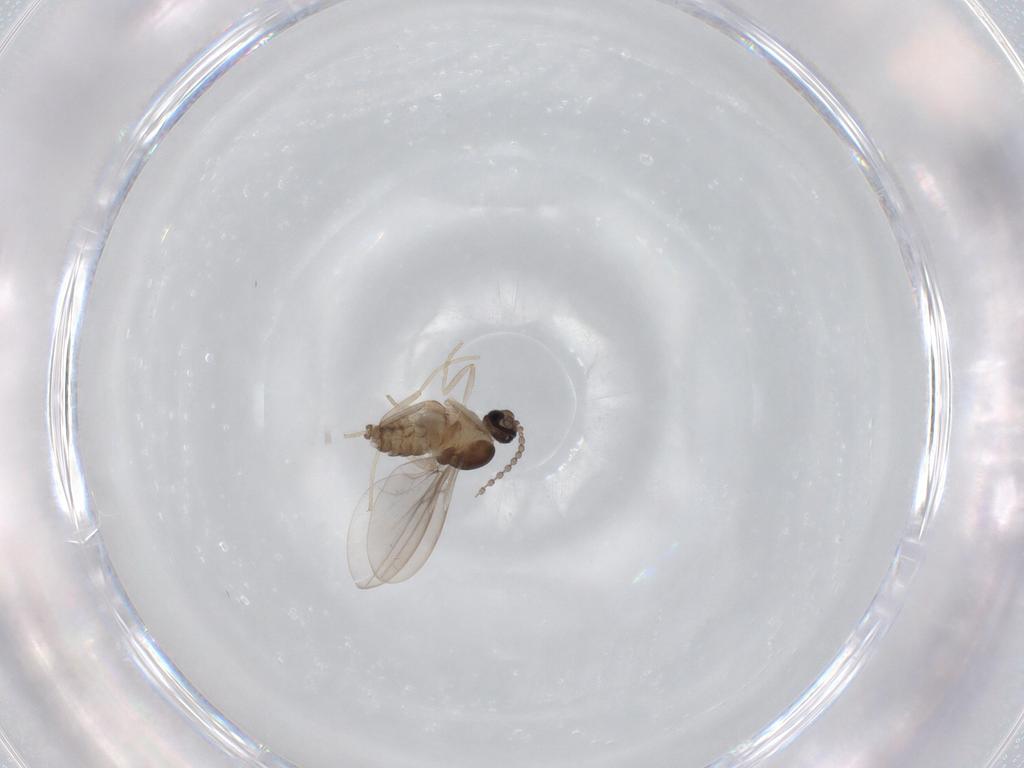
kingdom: Animalia
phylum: Arthropoda
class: Insecta
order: Diptera
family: Cecidomyiidae
